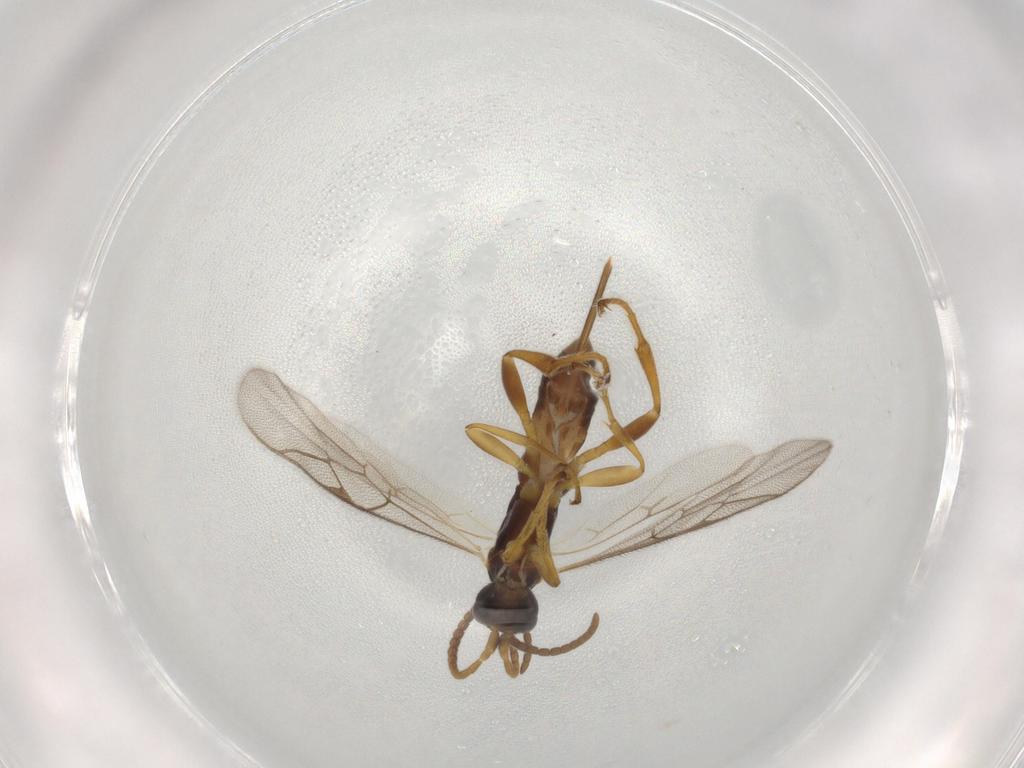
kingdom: Animalia
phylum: Arthropoda
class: Insecta
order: Hymenoptera
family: Ichneumonidae
